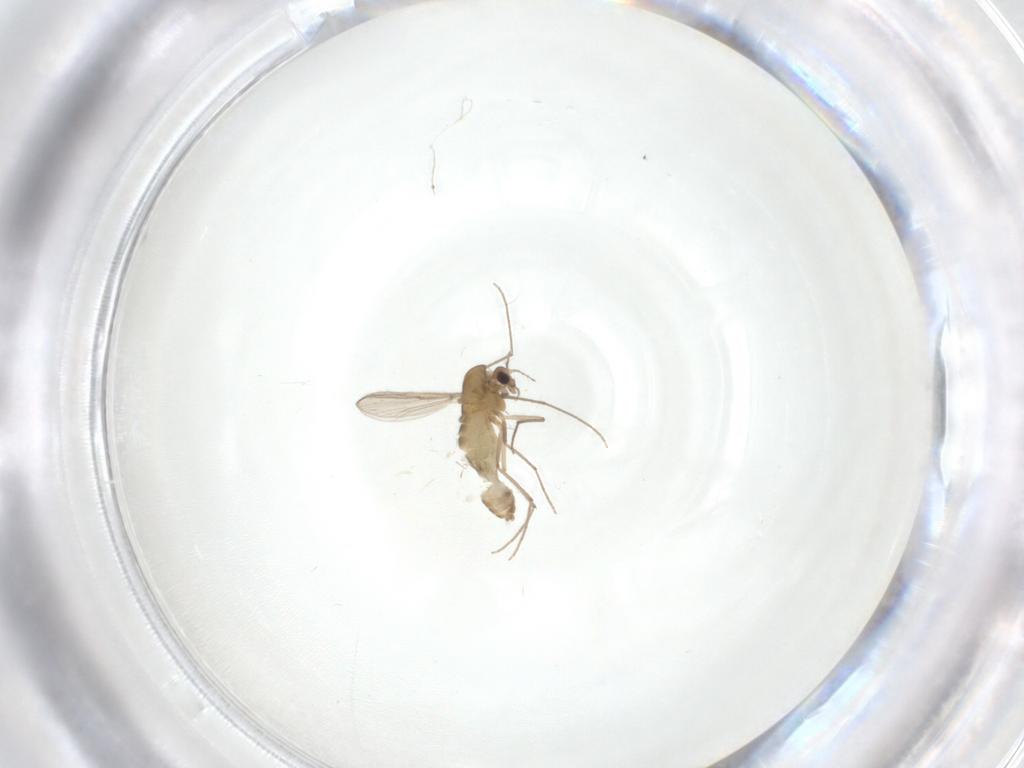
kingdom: Animalia
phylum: Arthropoda
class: Insecta
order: Diptera
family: Chironomidae
